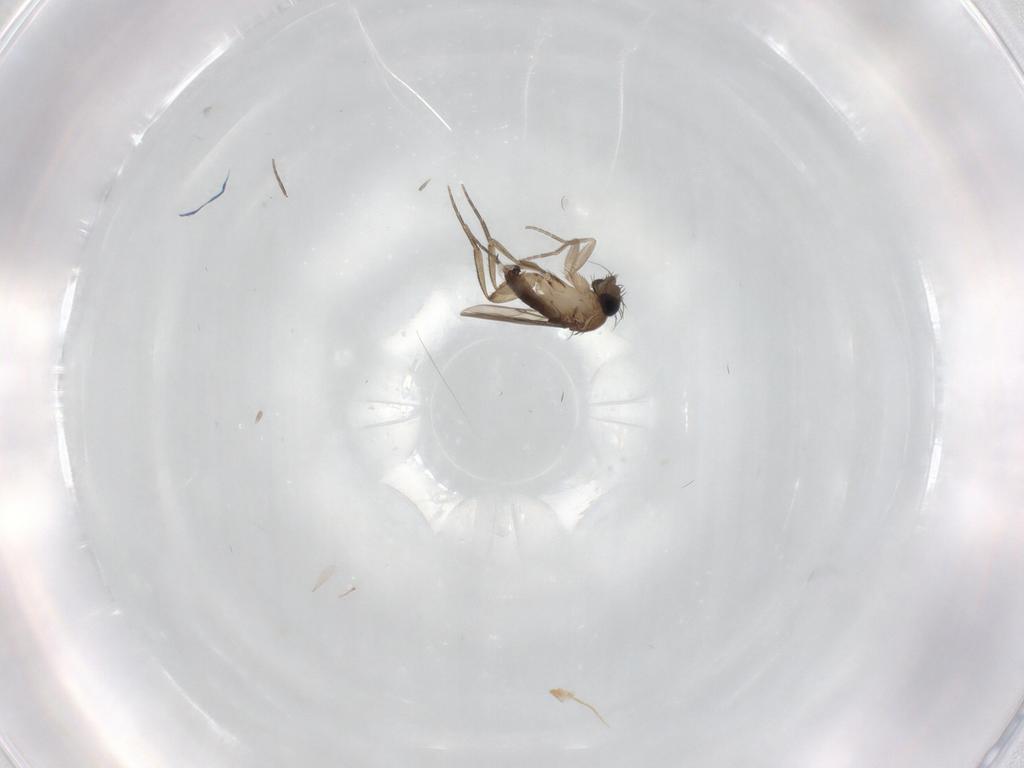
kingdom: Animalia
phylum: Arthropoda
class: Insecta
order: Diptera
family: Phoridae
